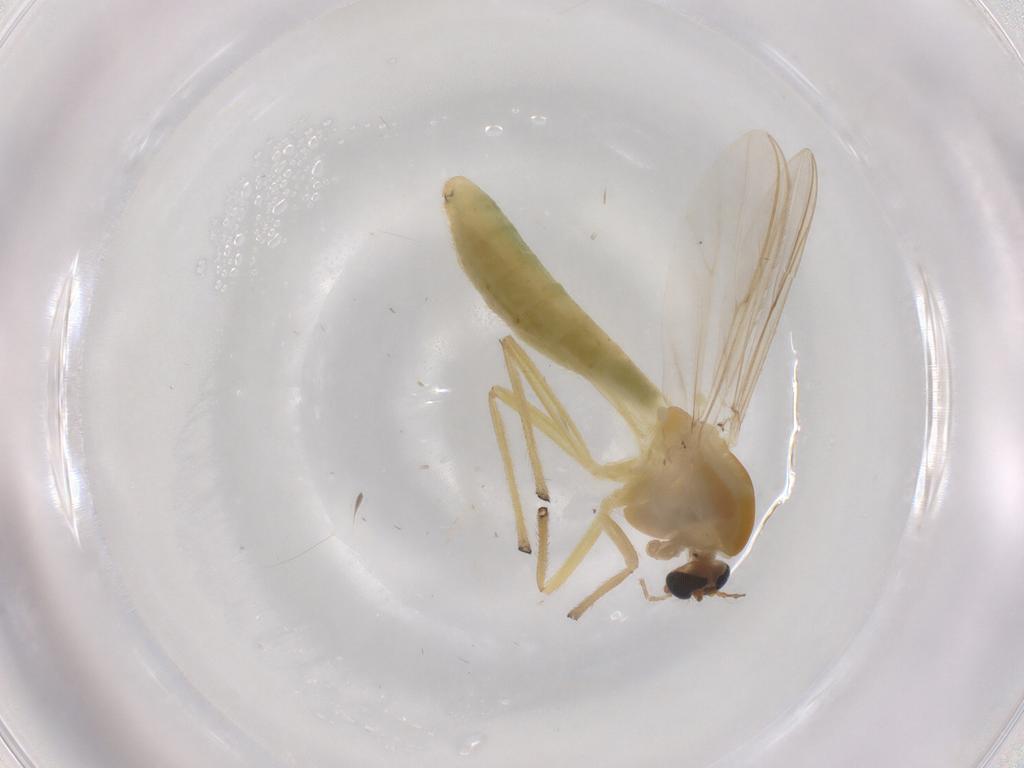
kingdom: Animalia
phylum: Arthropoda
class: Insecta
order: Diptera
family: Chironomidae
